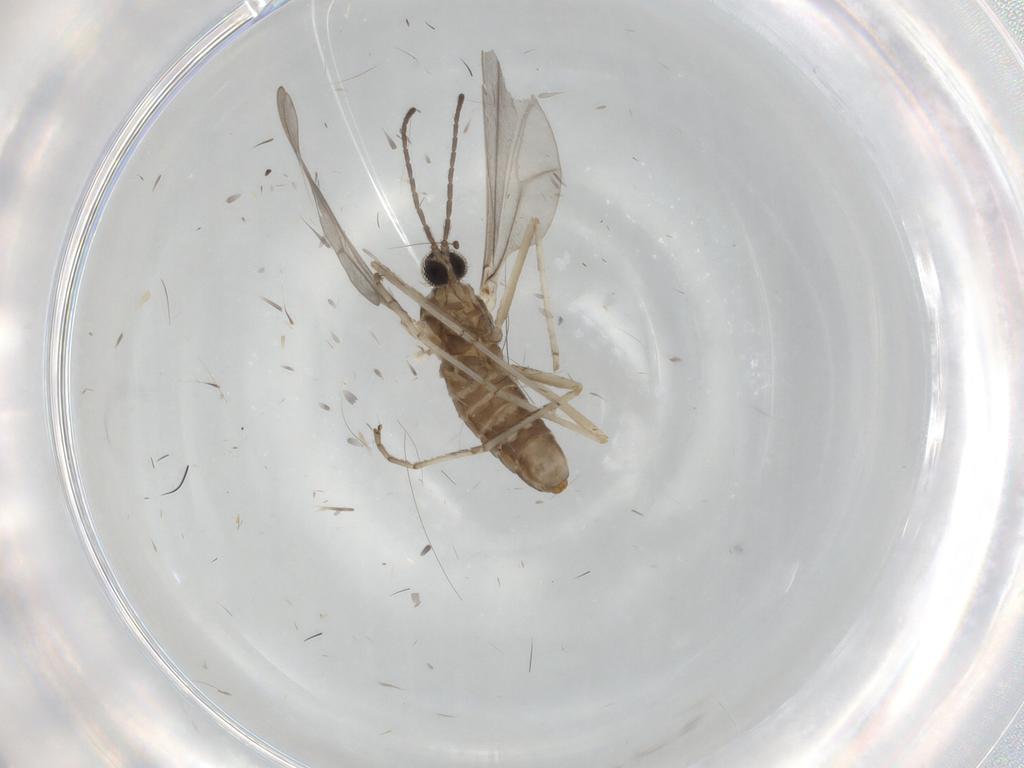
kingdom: Animalia
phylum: Arthropoda
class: Insecta
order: Diptera
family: Cecidomyiidae
